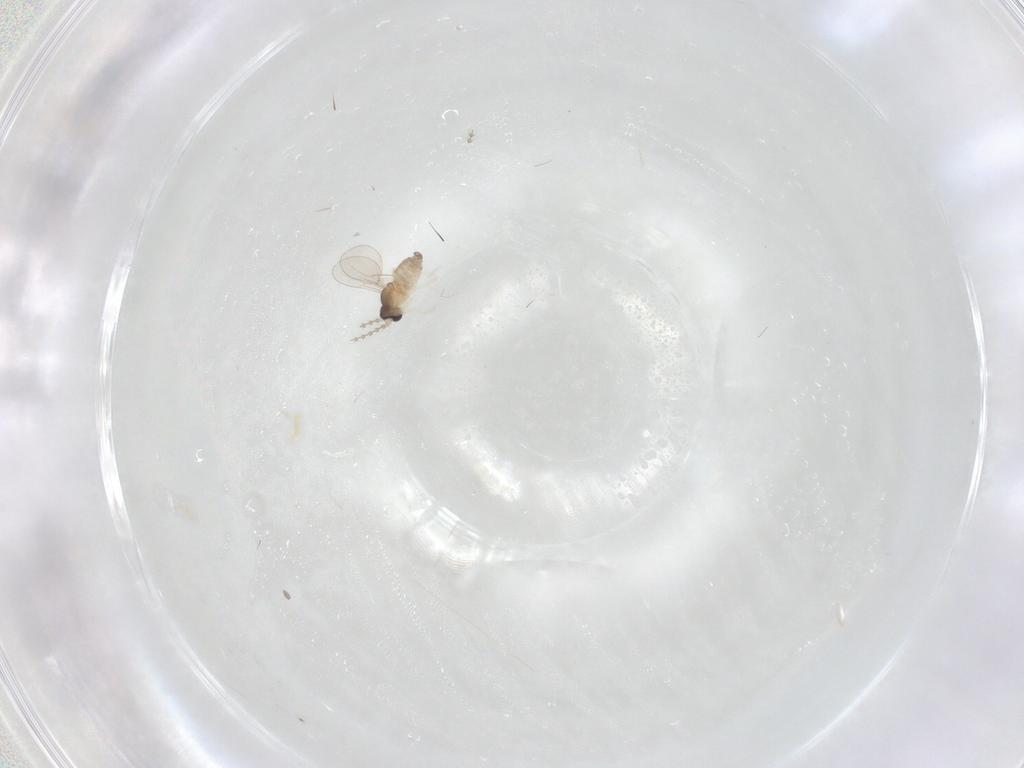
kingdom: Animalia
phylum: Arthropoda
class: Insecta
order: Diptera
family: Cecidomyiidae
